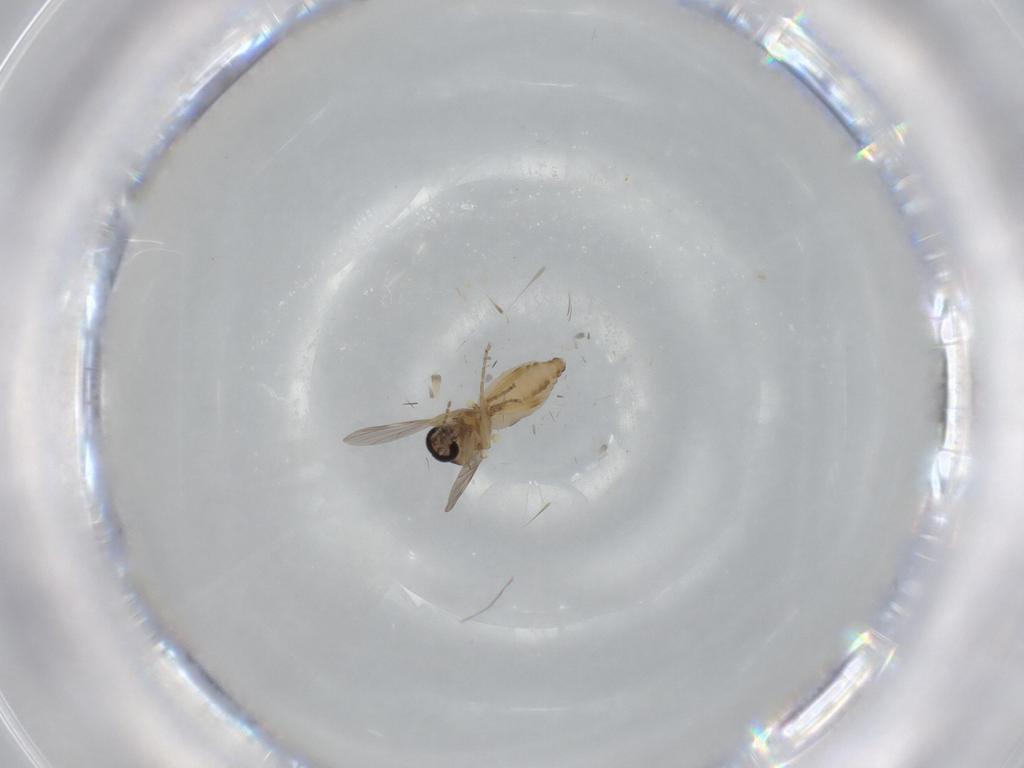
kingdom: Animalia
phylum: Arthropoda
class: Insecta
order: Diptera
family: Ceratopogonidae
